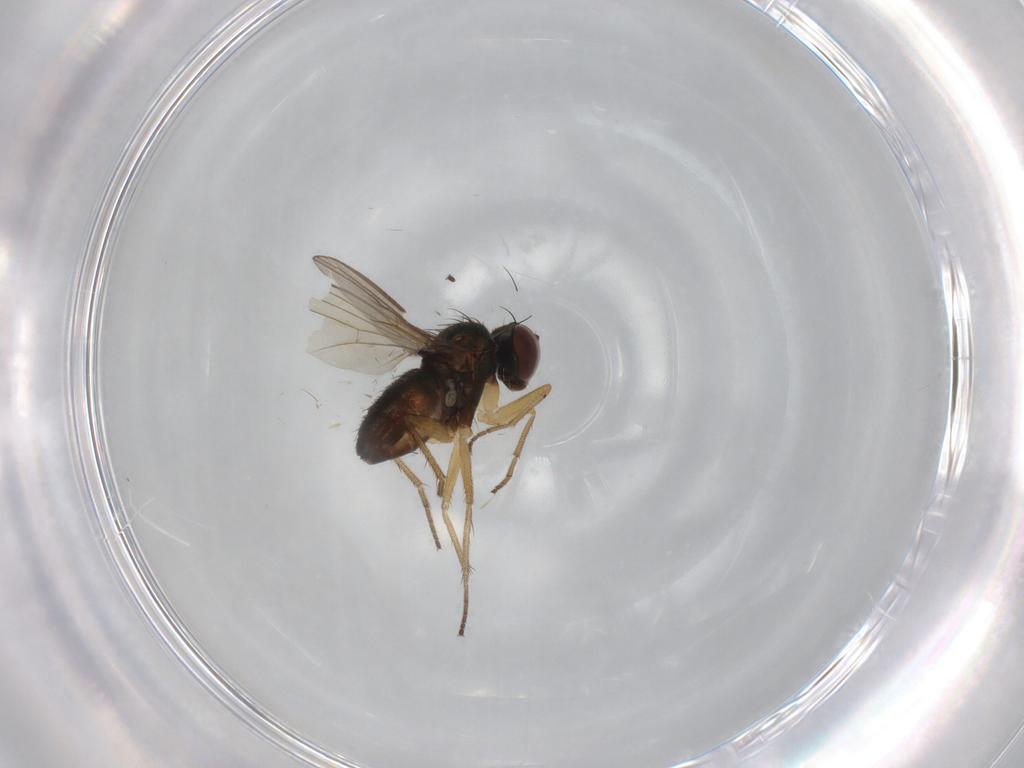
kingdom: Animalia
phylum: Arthropoda
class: Insecta
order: Diptera
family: Dolichopodidae
